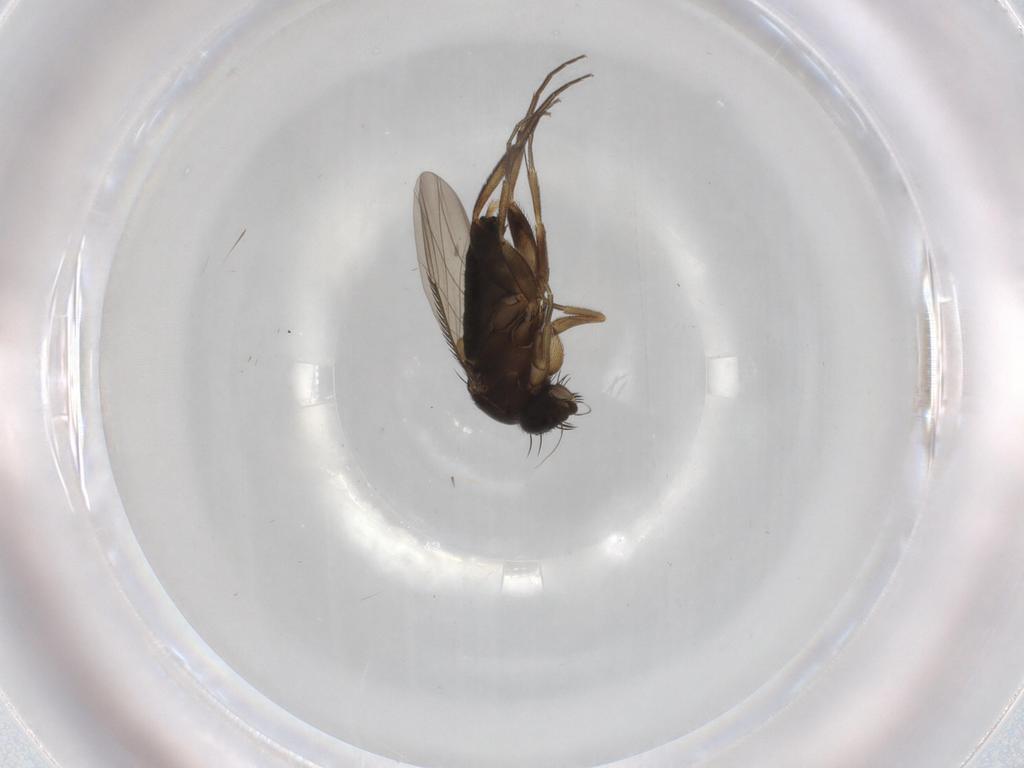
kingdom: Animalia
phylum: Arthropoda
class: Insecta
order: Diptera
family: Phoridae
